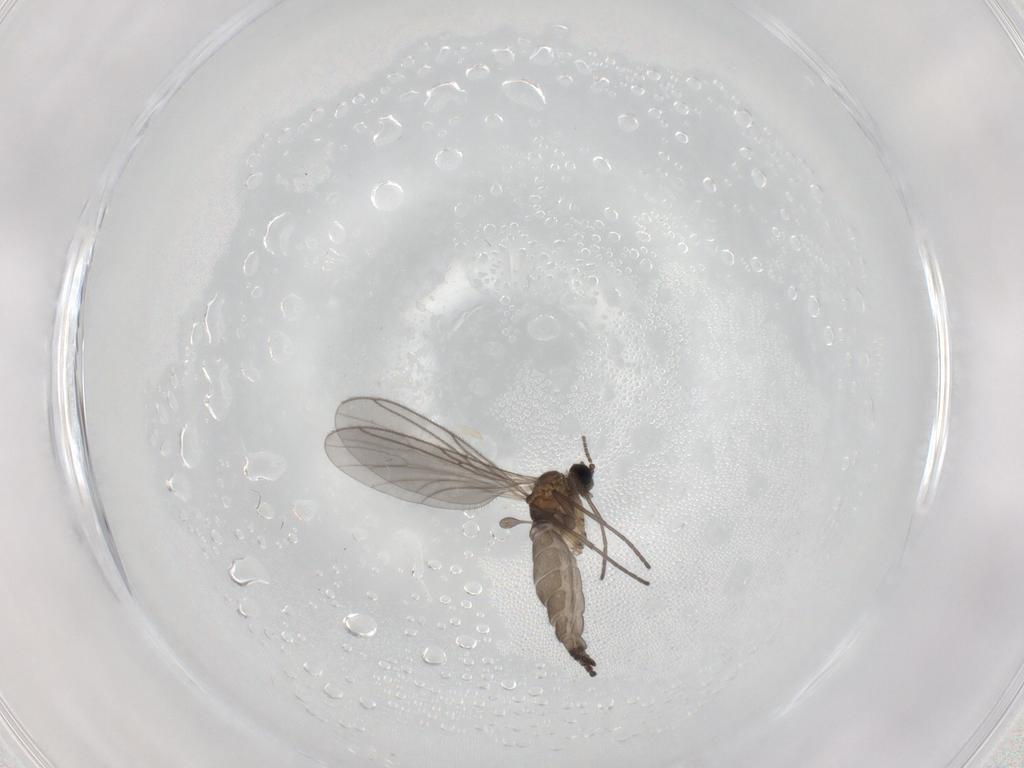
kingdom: Animalia
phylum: Arthropoda
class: Insecta
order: Diptera
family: Sciaridae
